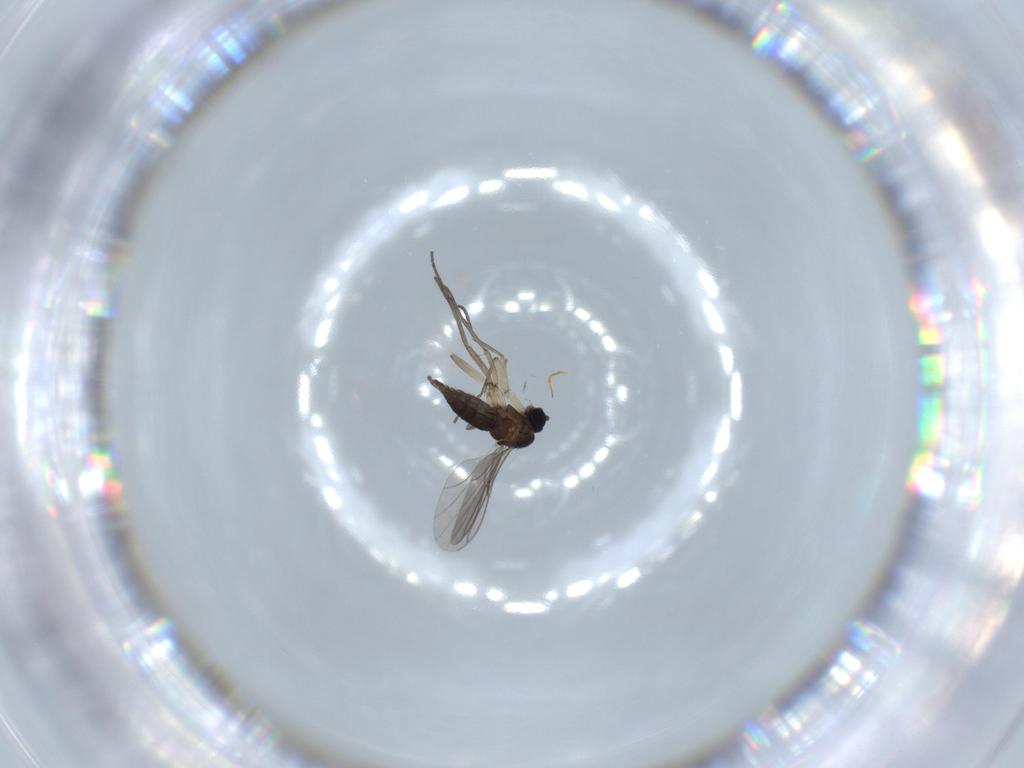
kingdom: Animalia
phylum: Arthropoda
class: Insecta
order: Diptera
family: Sciaridae
